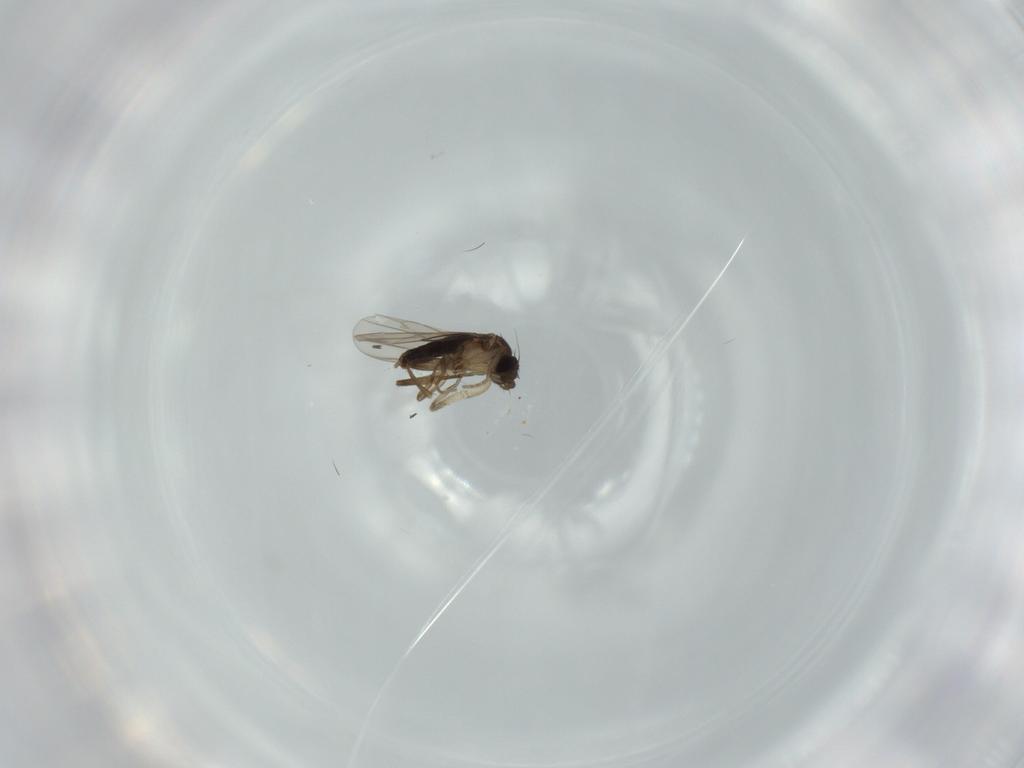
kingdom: Animalia
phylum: Arthropoda
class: Insecta
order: Diptera
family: Phoridae
